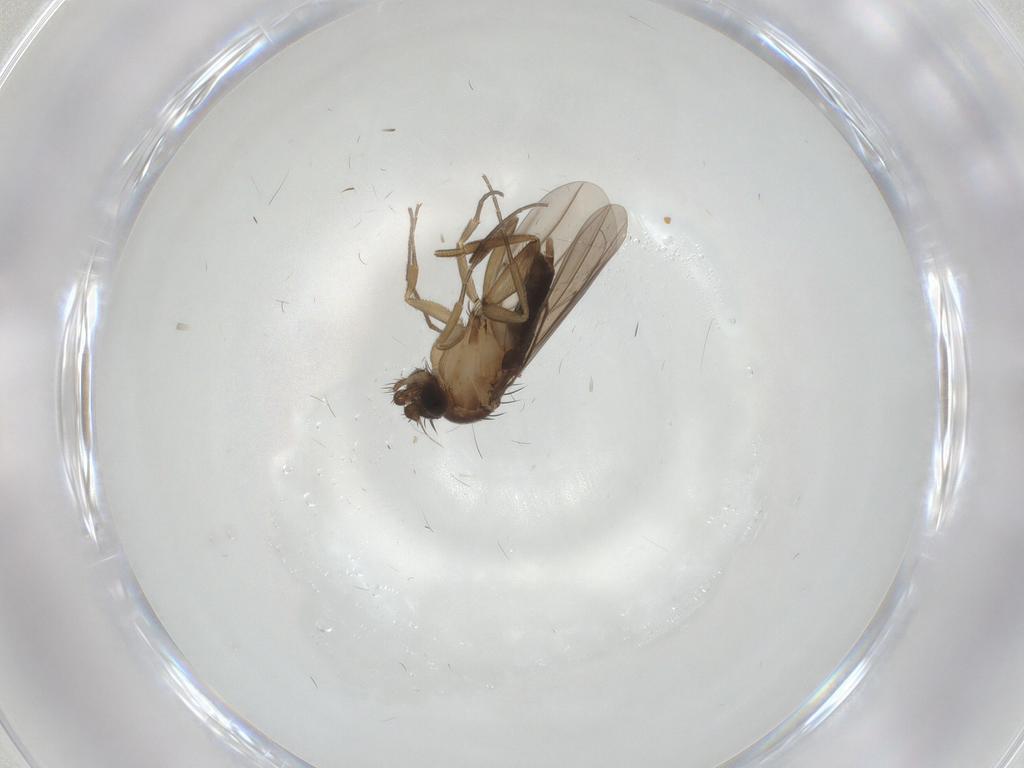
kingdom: Animalia
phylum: Arthropoda
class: Insecta
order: Diptera
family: Chironomidae
